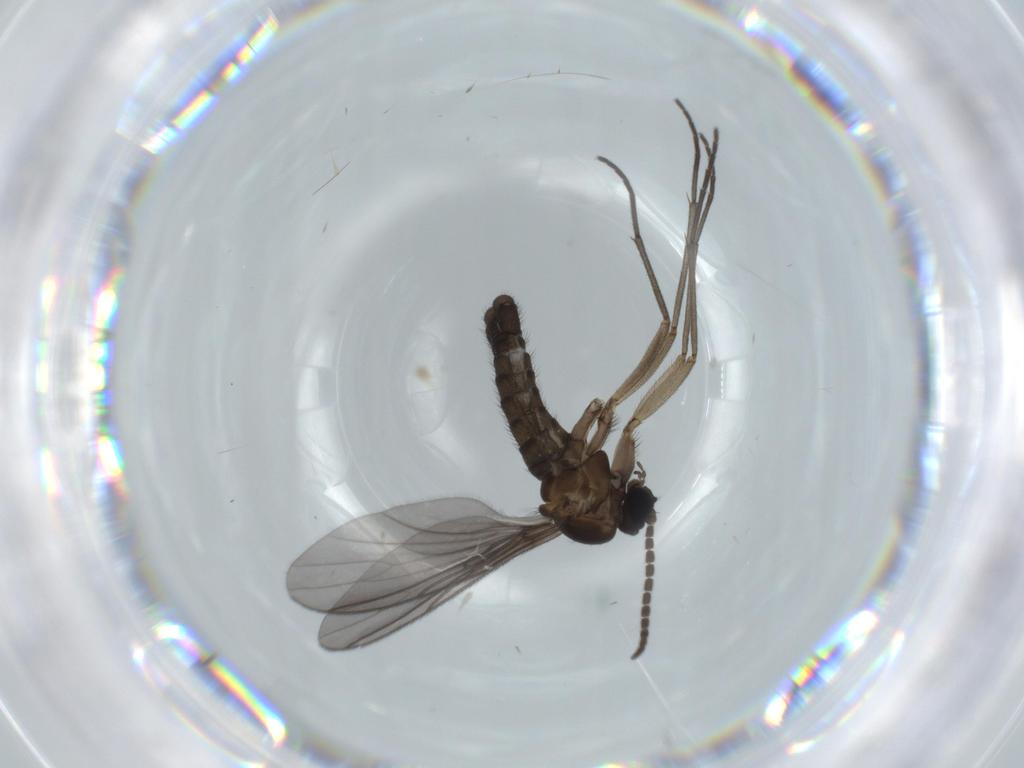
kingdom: Animalia
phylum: Arthropoda
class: Insecta
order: Diptera
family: Sciaridae
